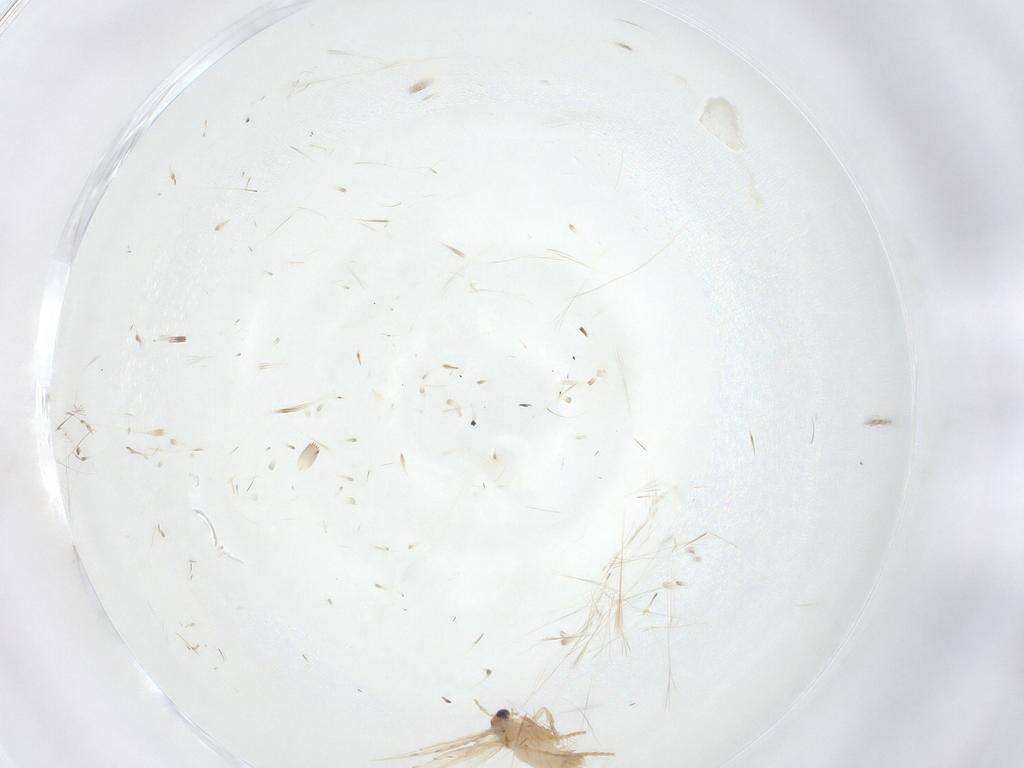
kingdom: Animalia
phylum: Arthropoda
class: Insecta
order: Lepidoptera
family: Nepticulidae
